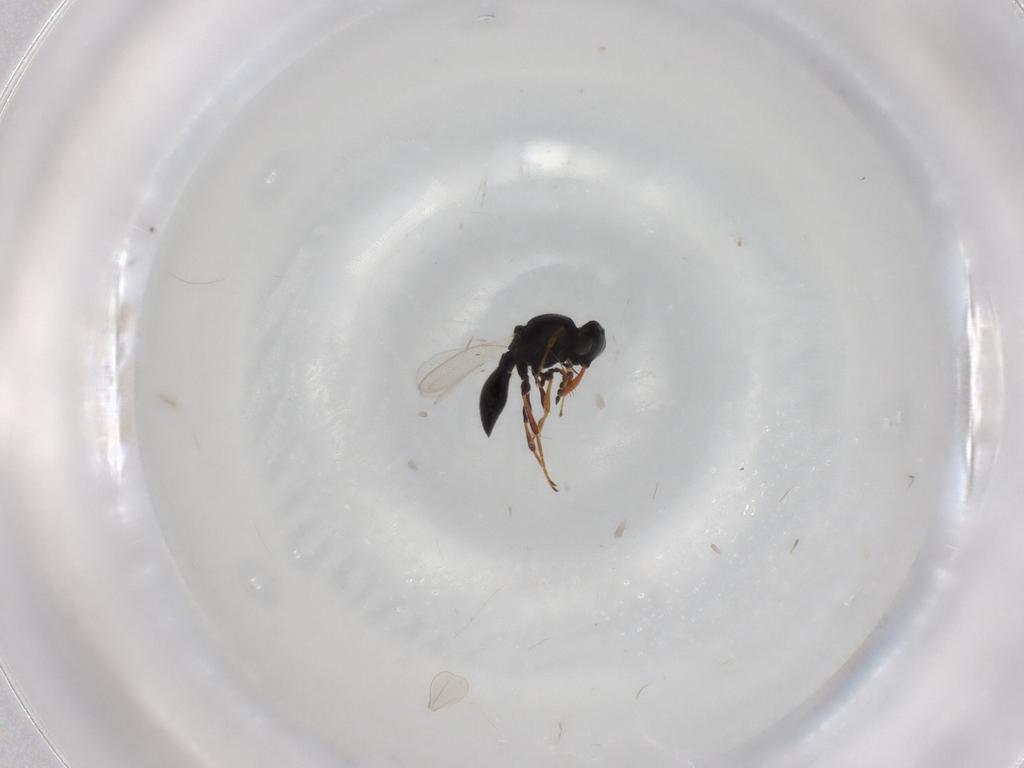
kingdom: Animalia
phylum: Arthropoda
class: Insecta
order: Hymenoptera
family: Platygastridae
